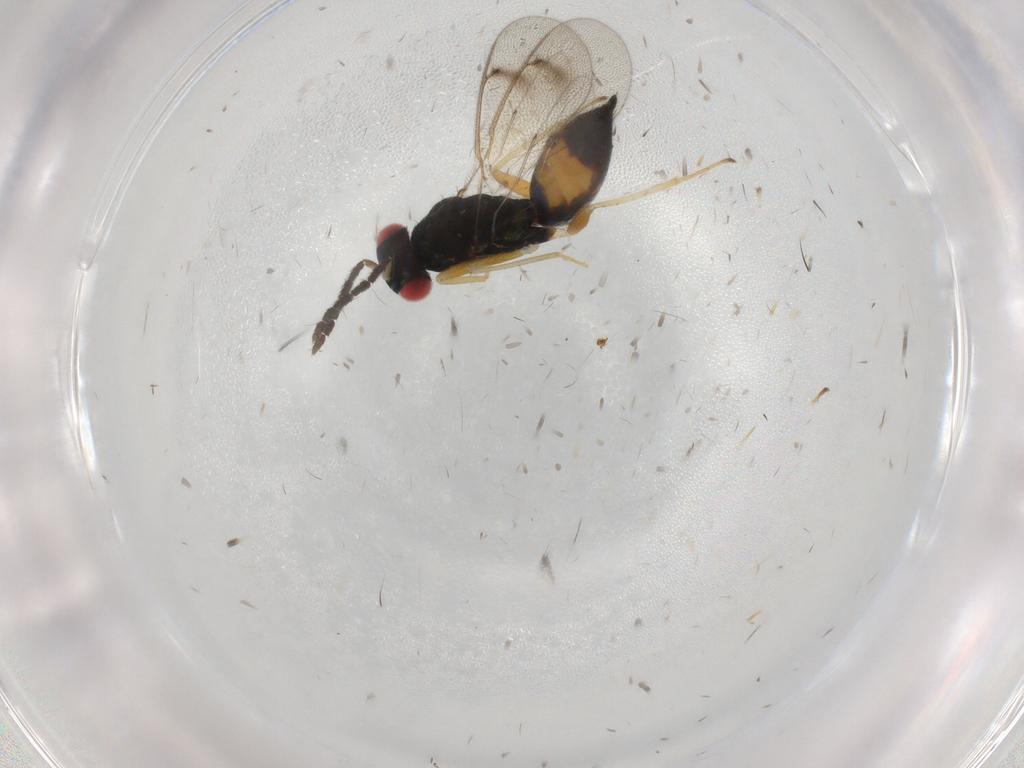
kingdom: Animalia
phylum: Arthropoda
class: Insecta
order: Hymenoptera
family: Eulophidae
